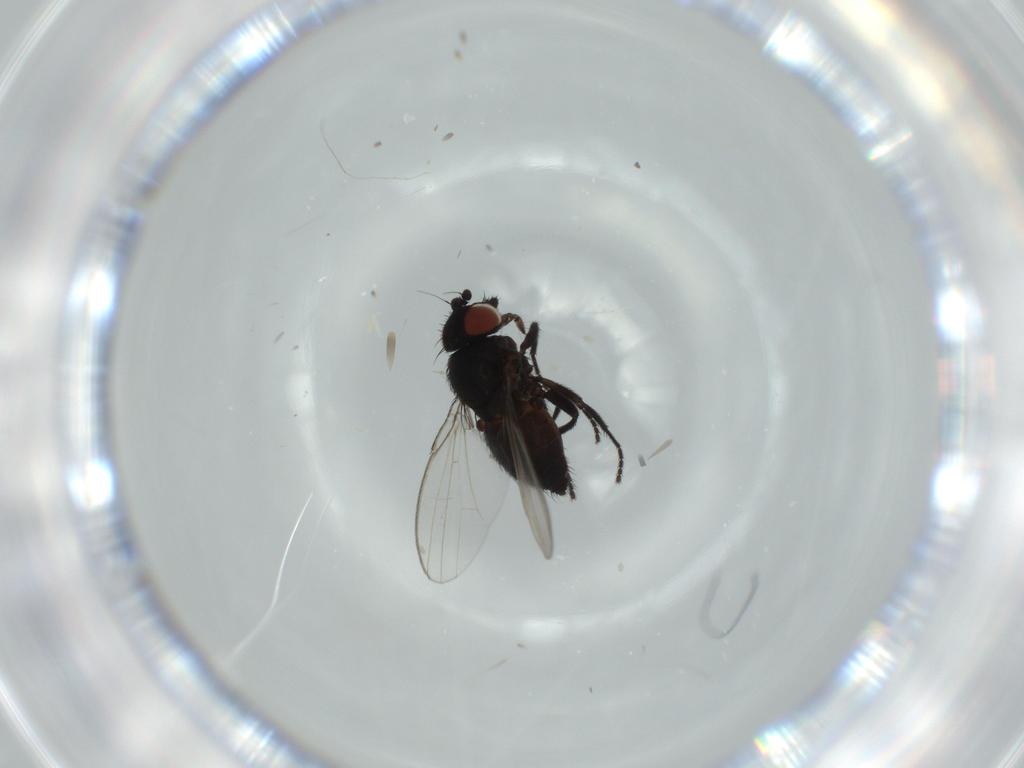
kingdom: Animalia
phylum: Arthropoda
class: Insecta
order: Diptera
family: Milichiidae
